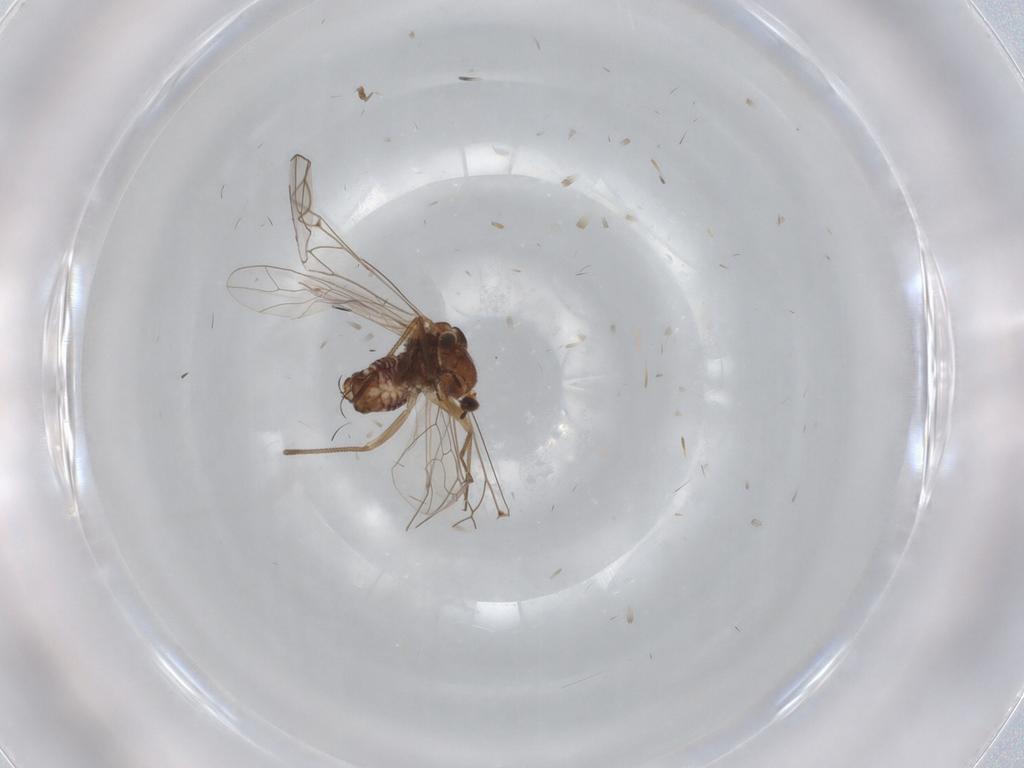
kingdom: Animalia
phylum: Arthropoda
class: Insecta
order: Psocodea
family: Lachesillidae
